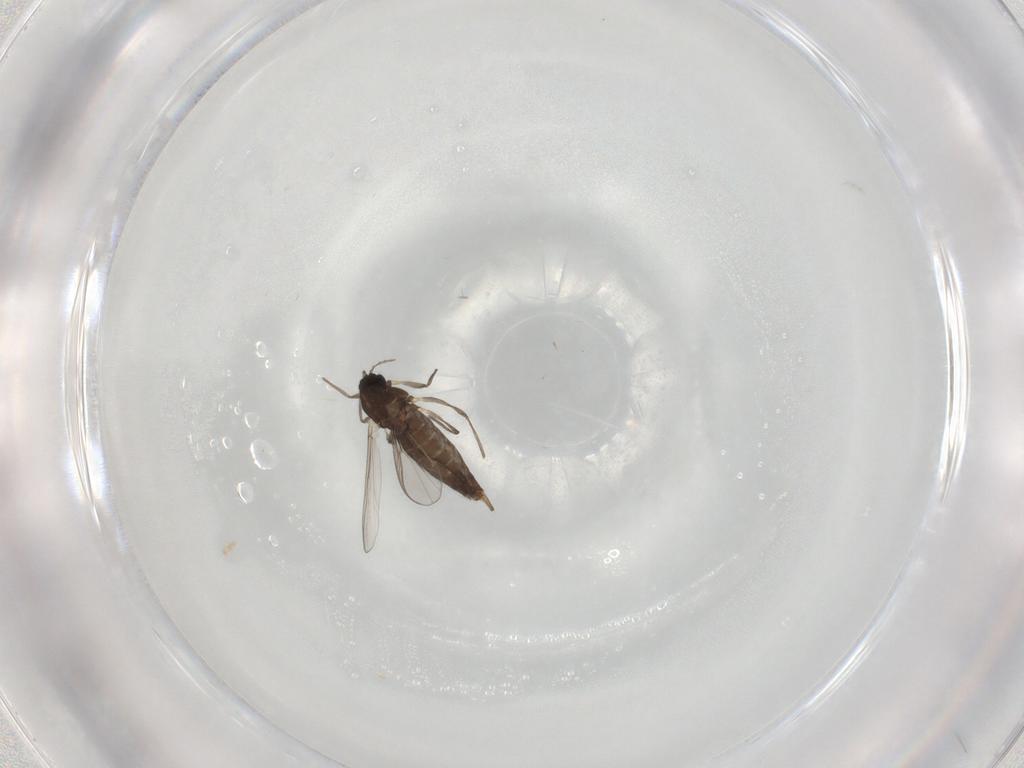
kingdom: Animalia
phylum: Arthropoda
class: Insecta
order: Diptera
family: Chironomidae
